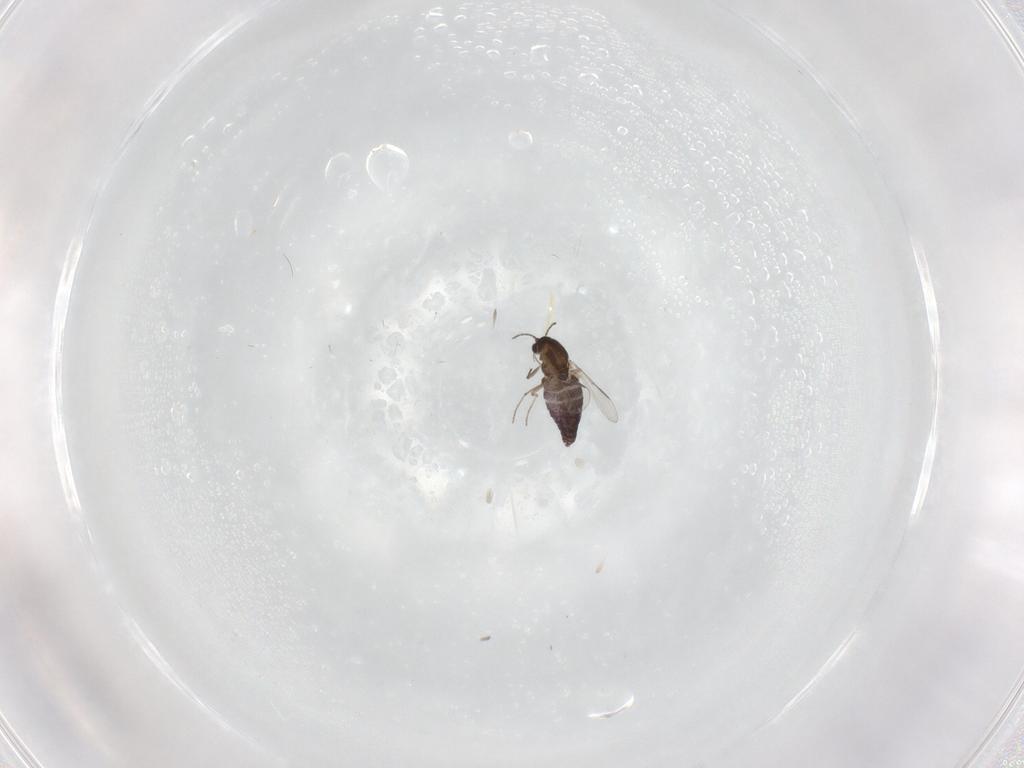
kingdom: Animalia
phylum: Arthropoda
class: Insecta
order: Diptera
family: Chironomidae
